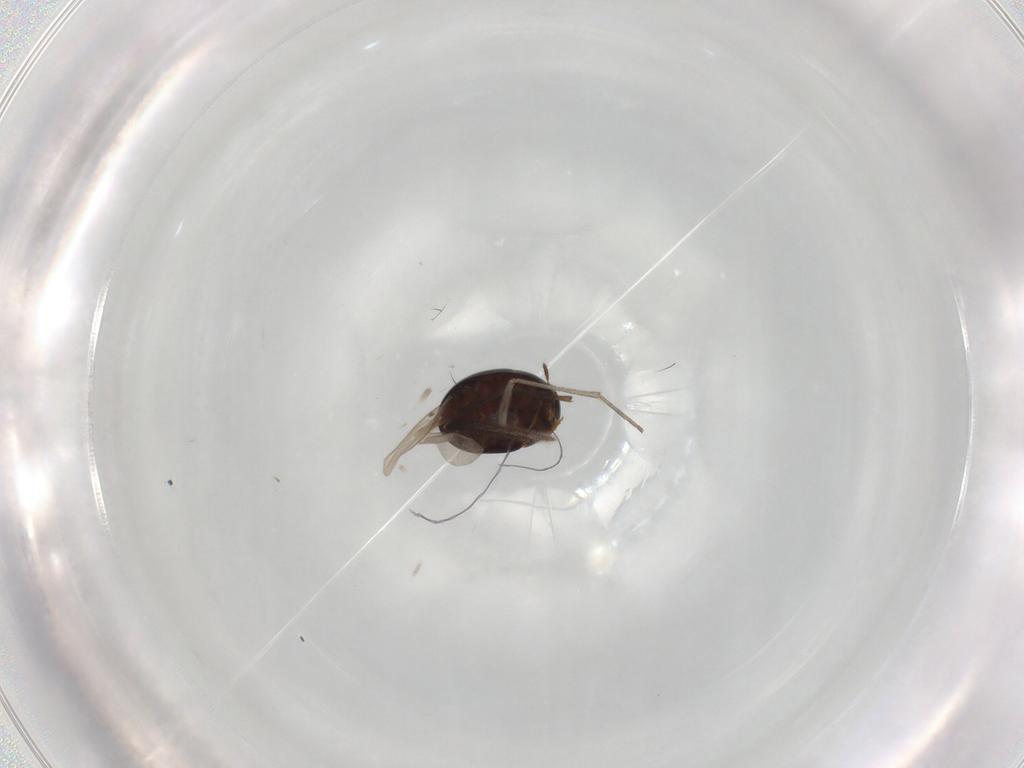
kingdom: Animalia
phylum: Arthropoda
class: Insecta
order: Coleoptera
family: Leiodidae
